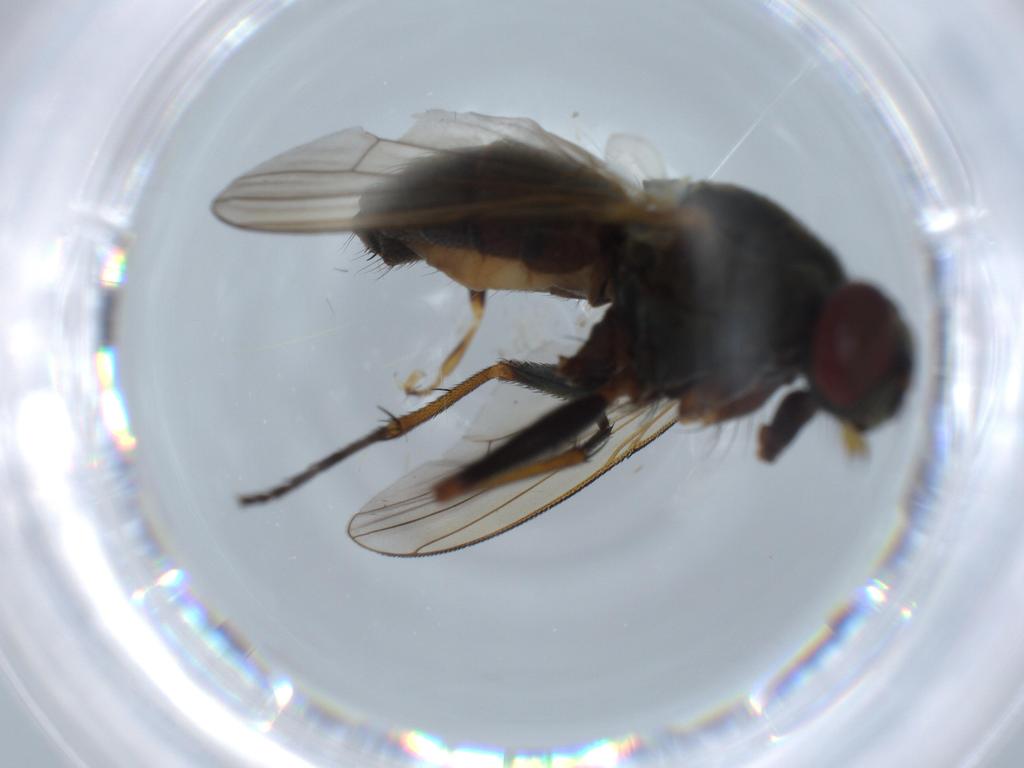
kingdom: Animalia
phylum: Arthropoda
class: Insecta
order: Diptera
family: Ephydridae
